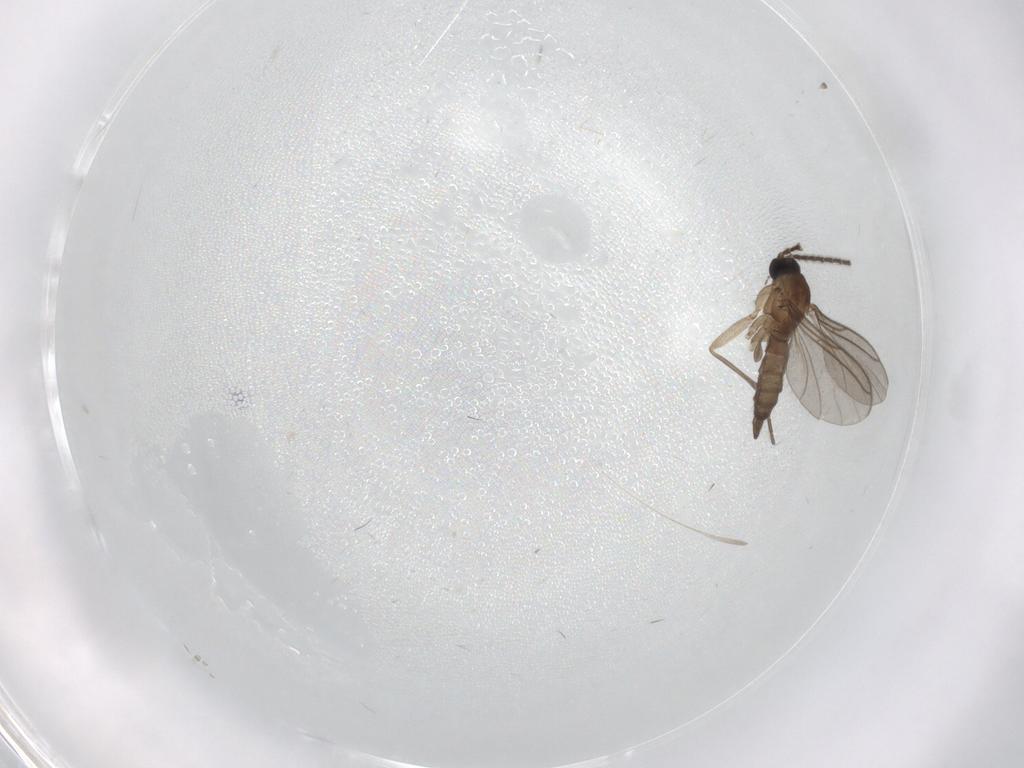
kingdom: Animalia
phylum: Arthropoda
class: Insecta
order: Diptera
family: Sciaridae
